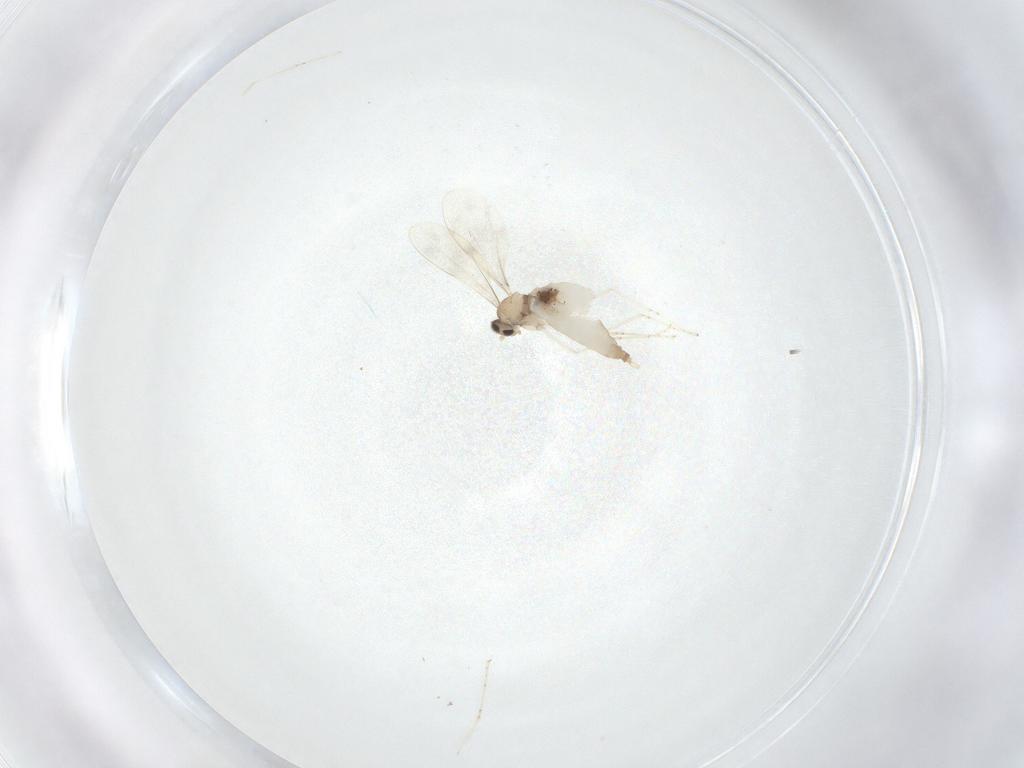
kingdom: Animalia
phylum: Arthropoda
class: Insecta
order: Diptera
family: Cecidomyiidae
